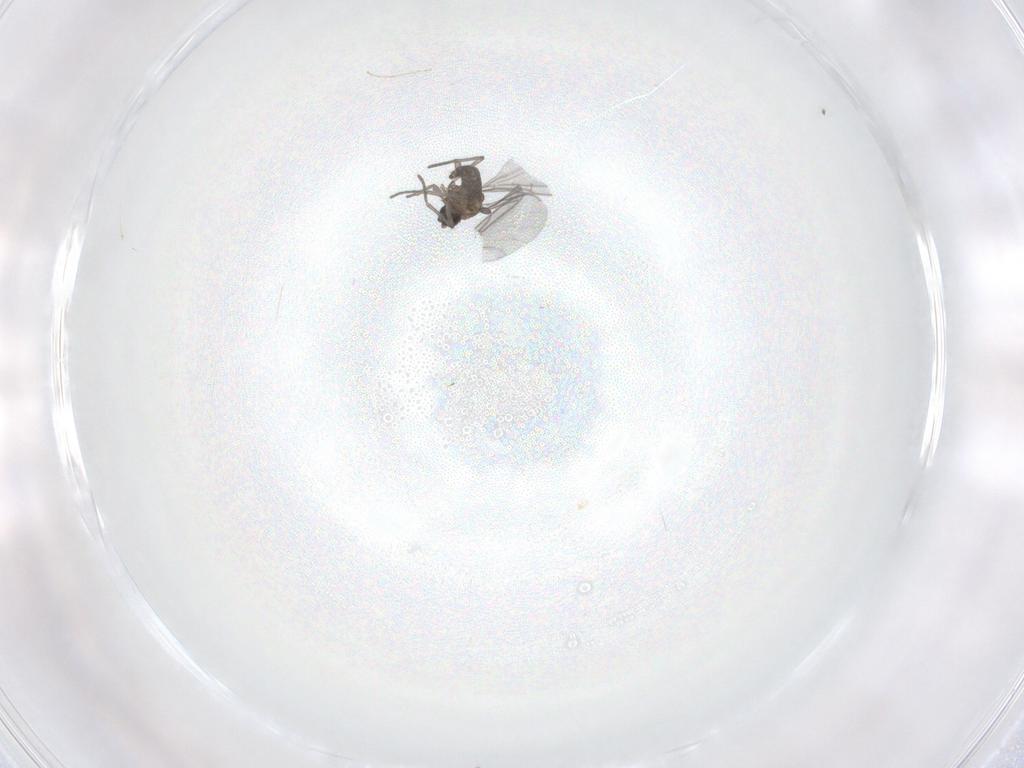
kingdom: Animalia
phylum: Arthropoda
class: Insecta
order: Diptera
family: Sciaridae
